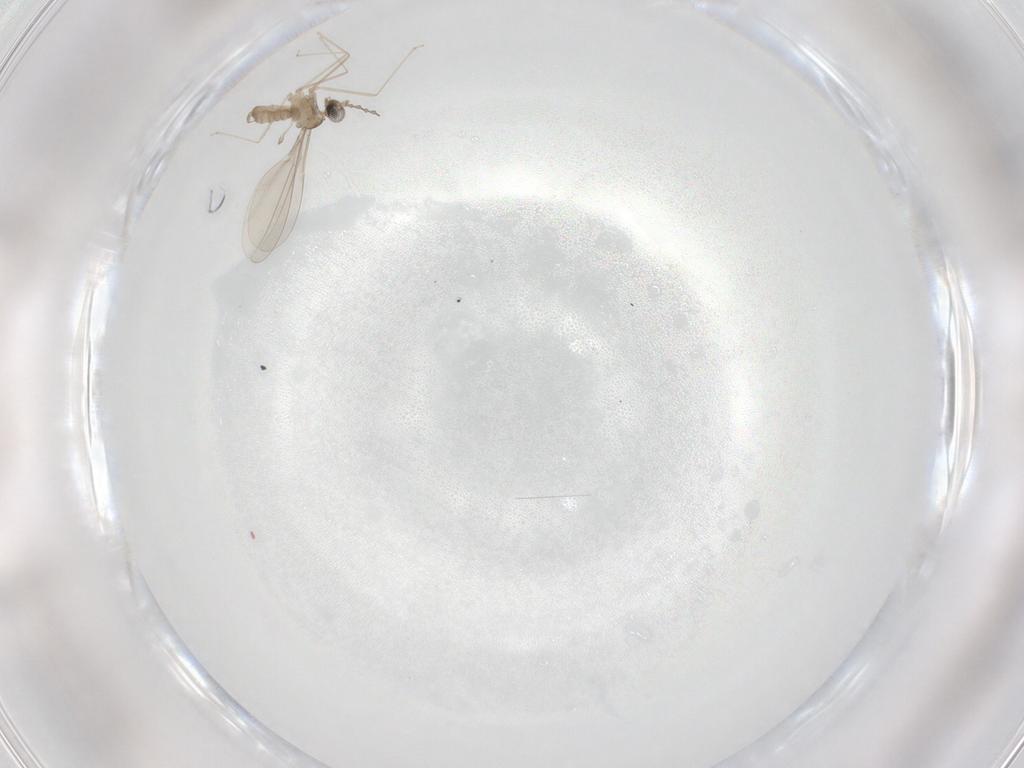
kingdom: Animalia
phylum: Arthropoda
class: Insecta
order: Diptera
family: Cecidomyiidae
